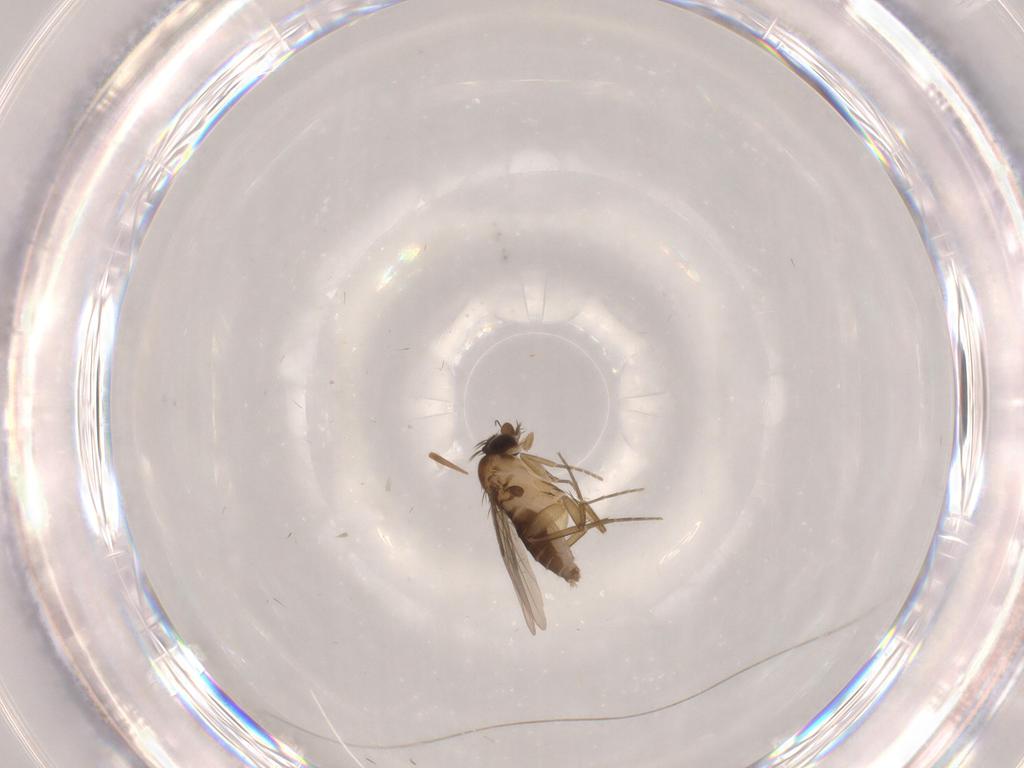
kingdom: Animalia
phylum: Arthropoda
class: Insecta
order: Diptera
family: Phoridae
